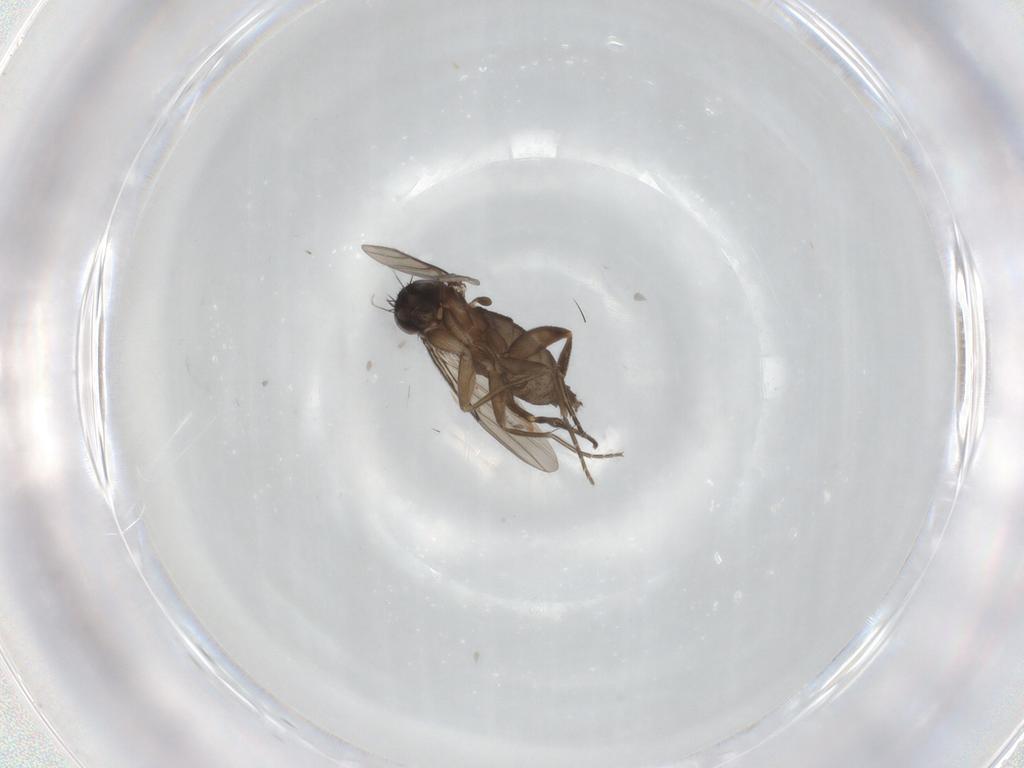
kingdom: Animalia
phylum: Arthropoda
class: Insecta
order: Diptera
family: Phoridae
